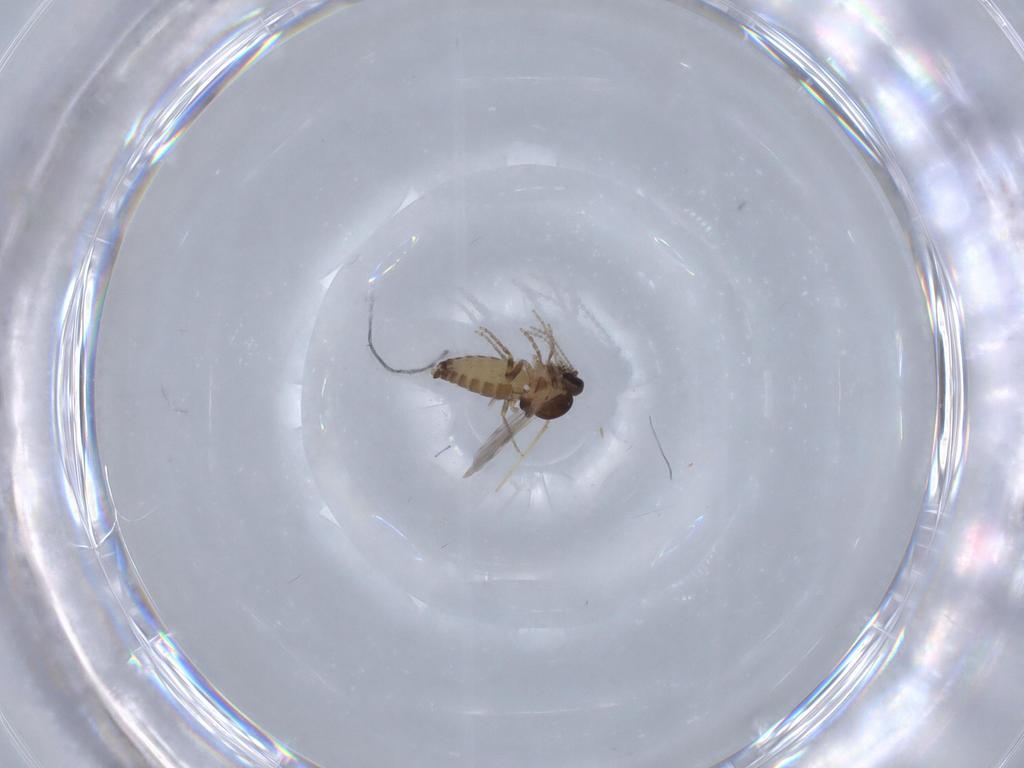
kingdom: Animalia
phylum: Arthropoda
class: Insecta
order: Diptera
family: Ceratopogonidae
